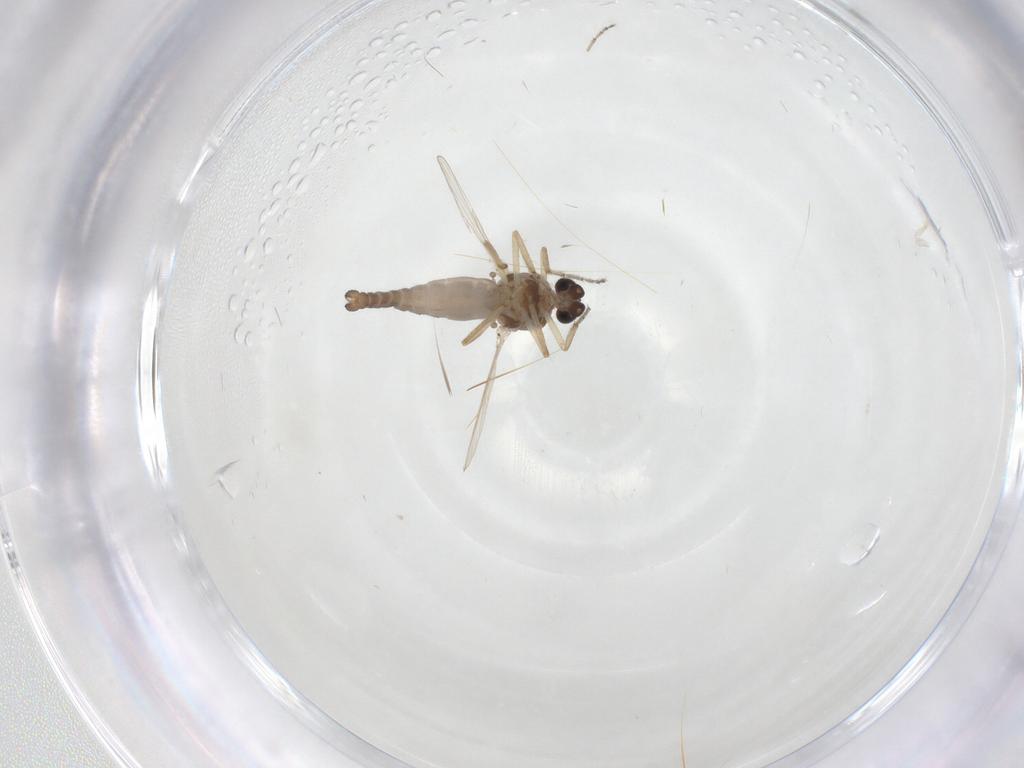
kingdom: Animalia
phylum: Arthropoda
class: Insecta
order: Diptera
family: Ceratopogonidae
